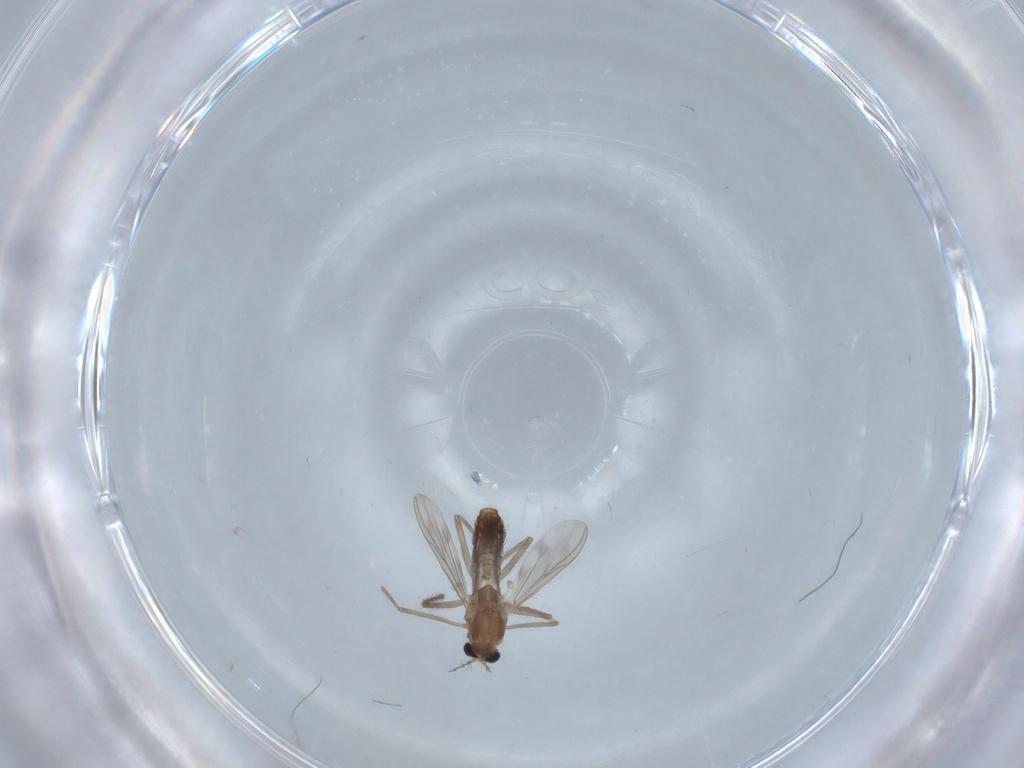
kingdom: Animalia
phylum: Arthropoda
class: Insecta
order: Diptera
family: Chironomidae
